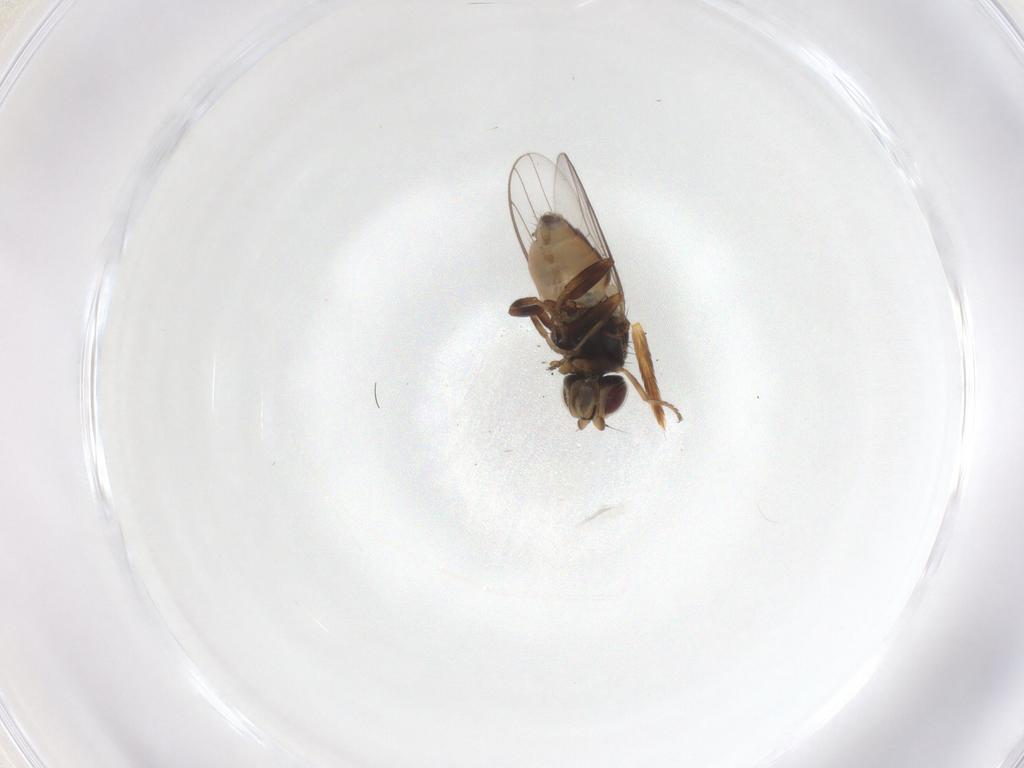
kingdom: Animalia
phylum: Arthropoda
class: Insecta
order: Diptera
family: Chloropidae
